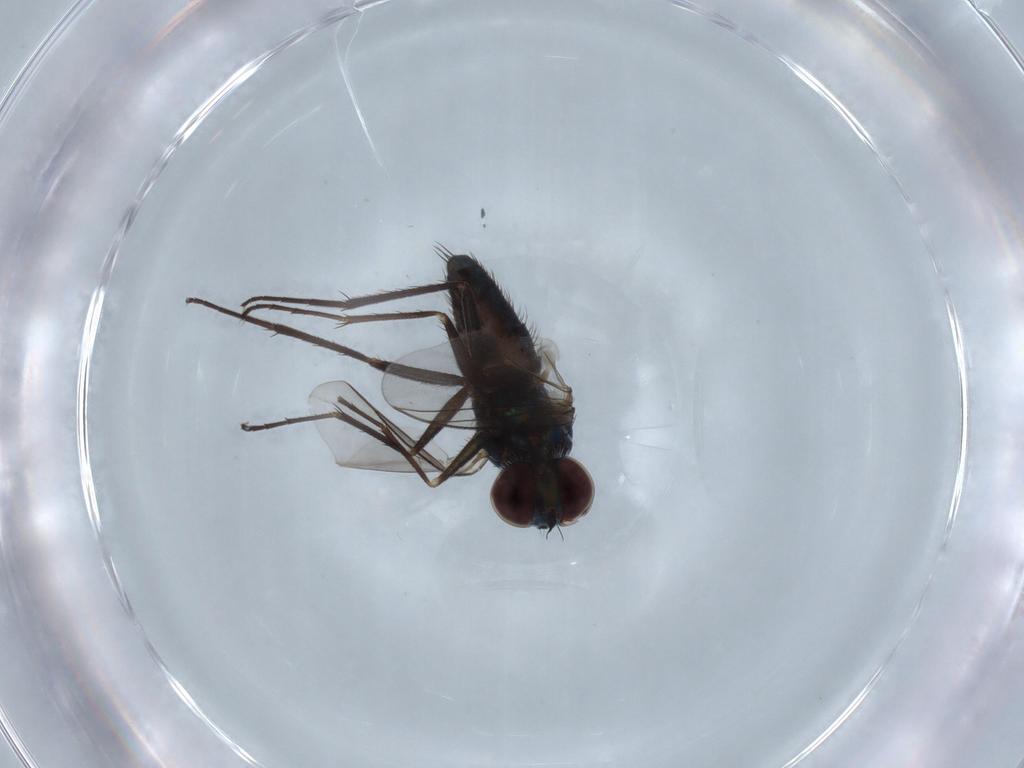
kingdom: Animalia
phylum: Arthropoda
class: Insecta
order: Diptera
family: Dolichopodidae
